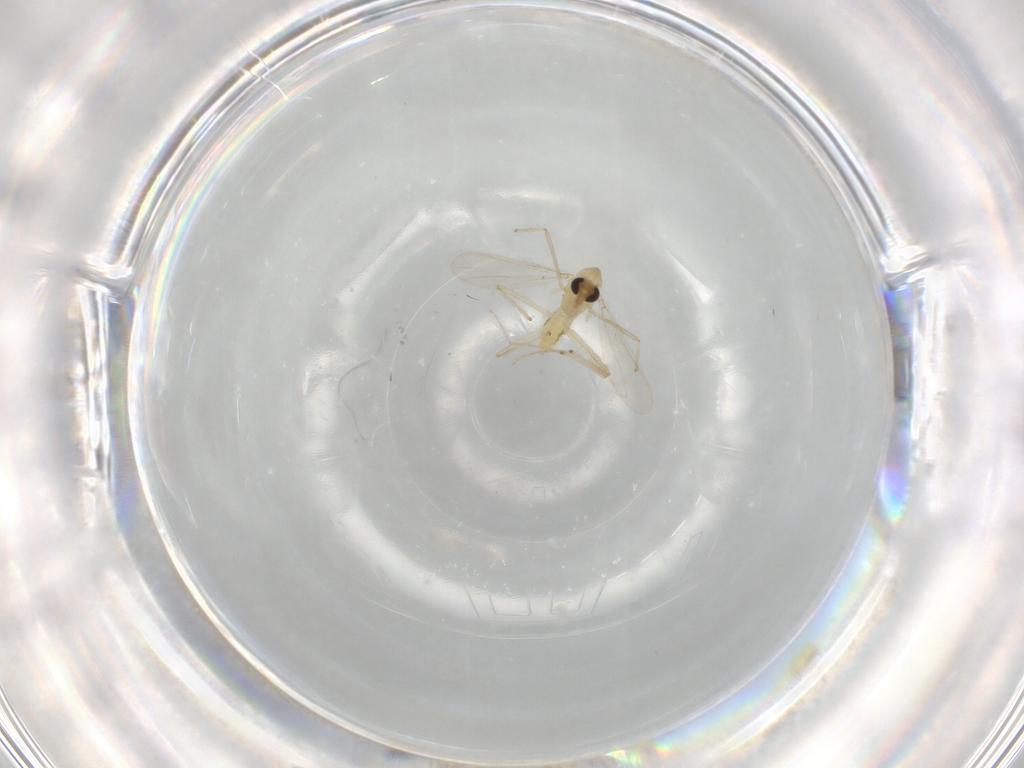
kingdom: Animalia
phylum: Arthropoda
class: Insecta
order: Diptera
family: Chironomidae
